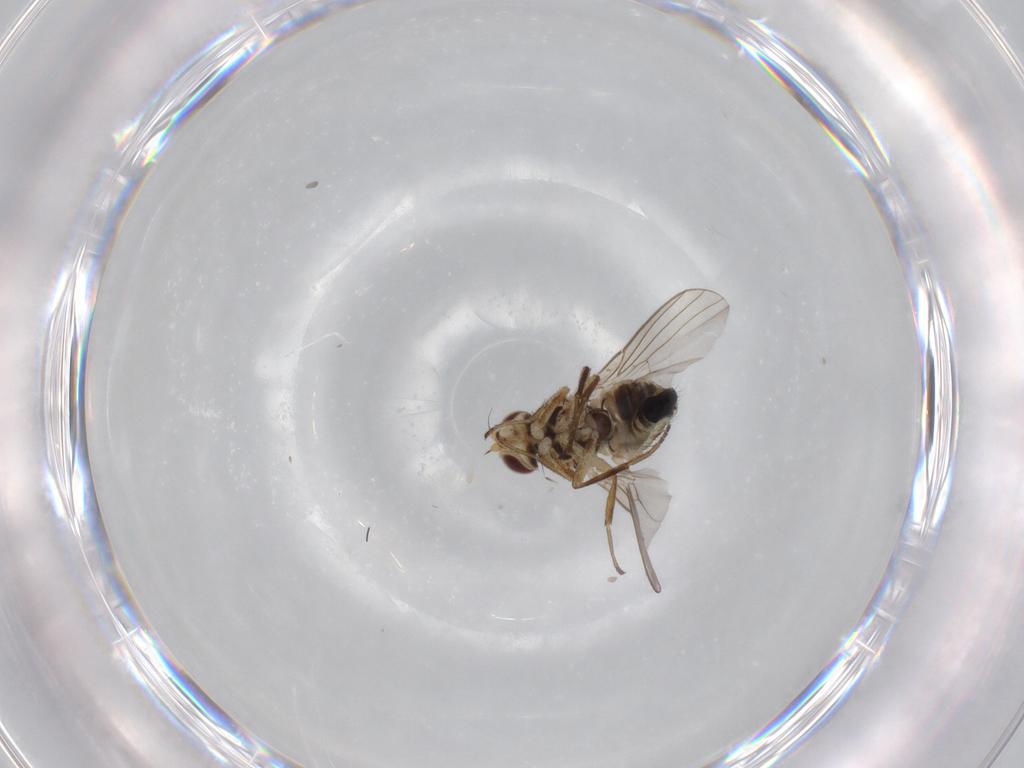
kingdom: Animalia
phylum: Arthropoda
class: Insecta
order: Diptera
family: Agromyzidae
